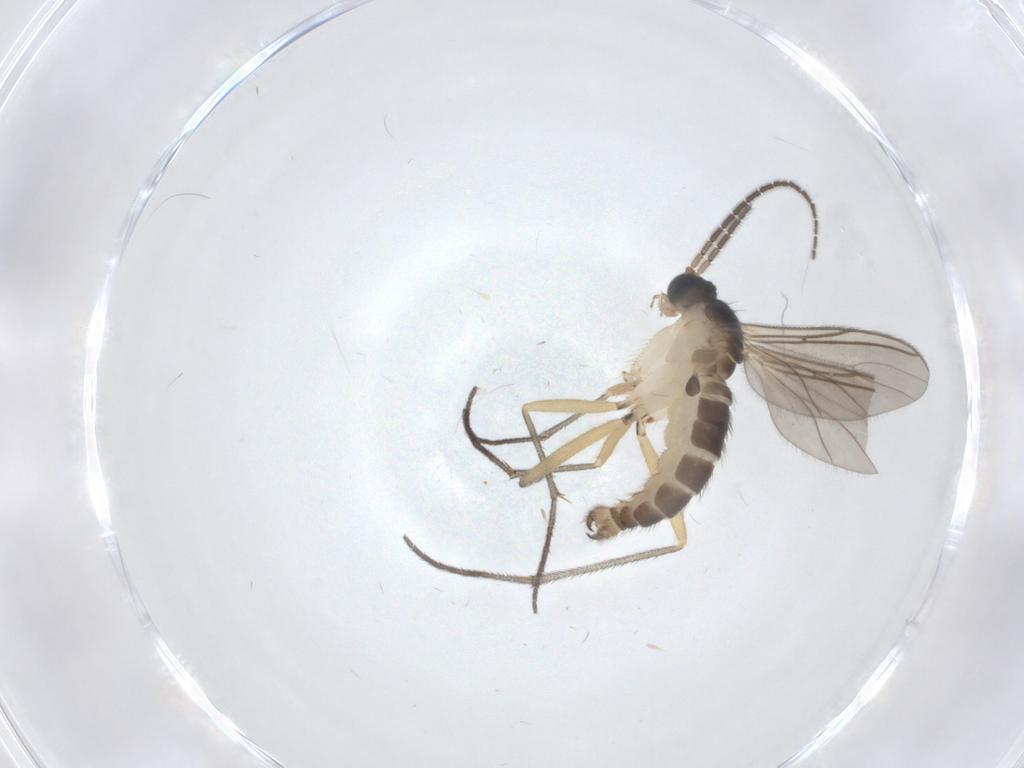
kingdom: Animalia
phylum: Arthropoda
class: Insecta
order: Diptera
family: Sciaridae
